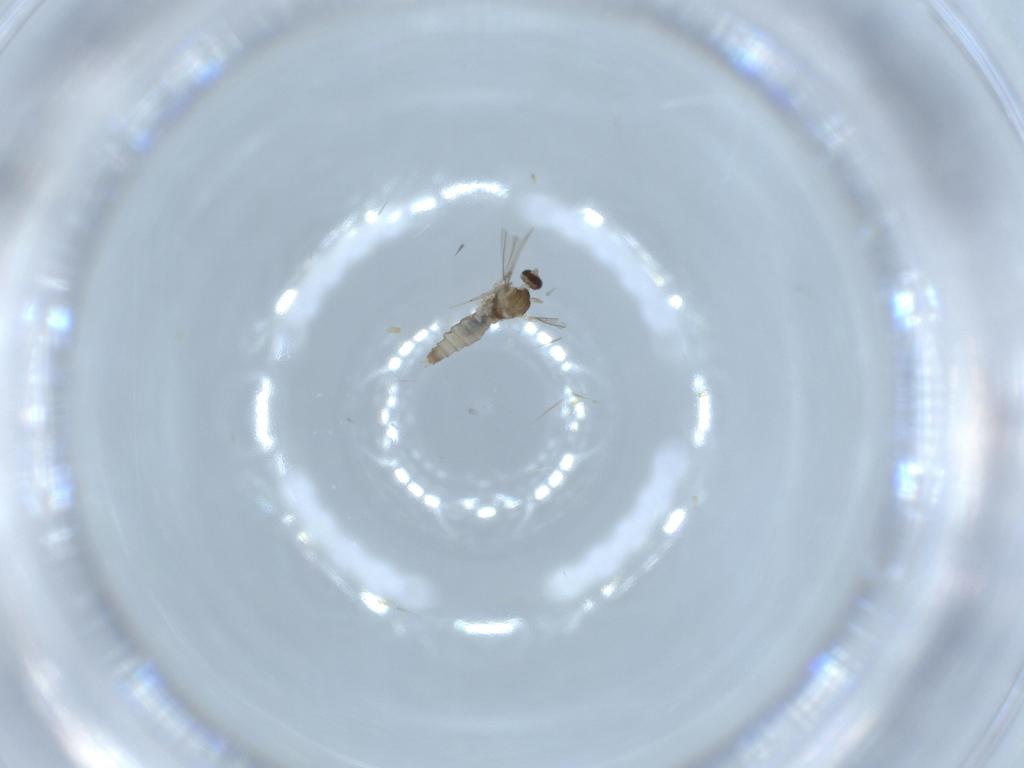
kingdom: Animalia
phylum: Arthropoda
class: Insecta
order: Diptera
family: Cecidomyiidae
